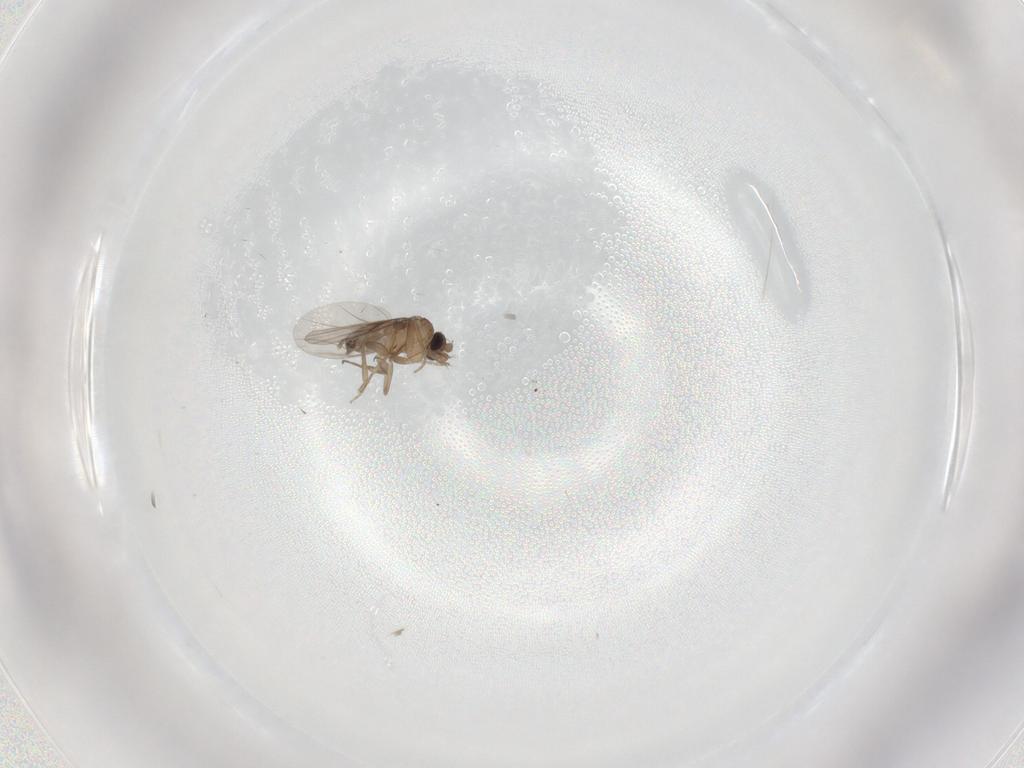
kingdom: Animalia
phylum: Arthropoda
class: Insecta
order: Diptera
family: Phoridae
